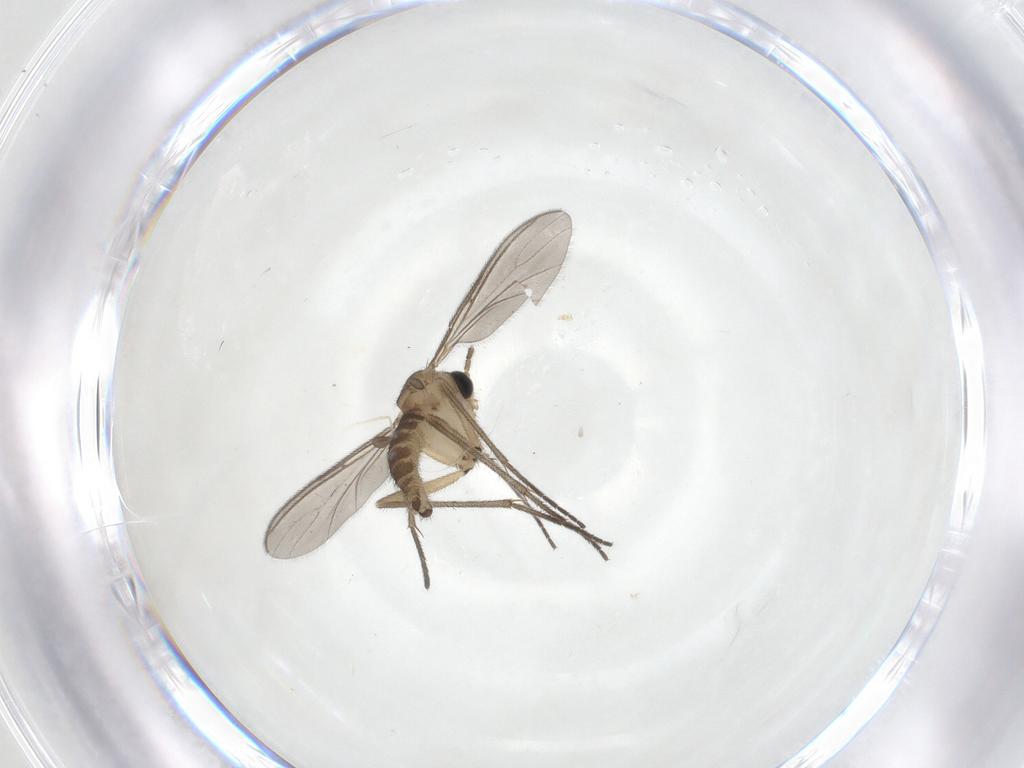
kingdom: Animalia
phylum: Arthropoda
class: Insecta
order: Diptera
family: Sciaridae
